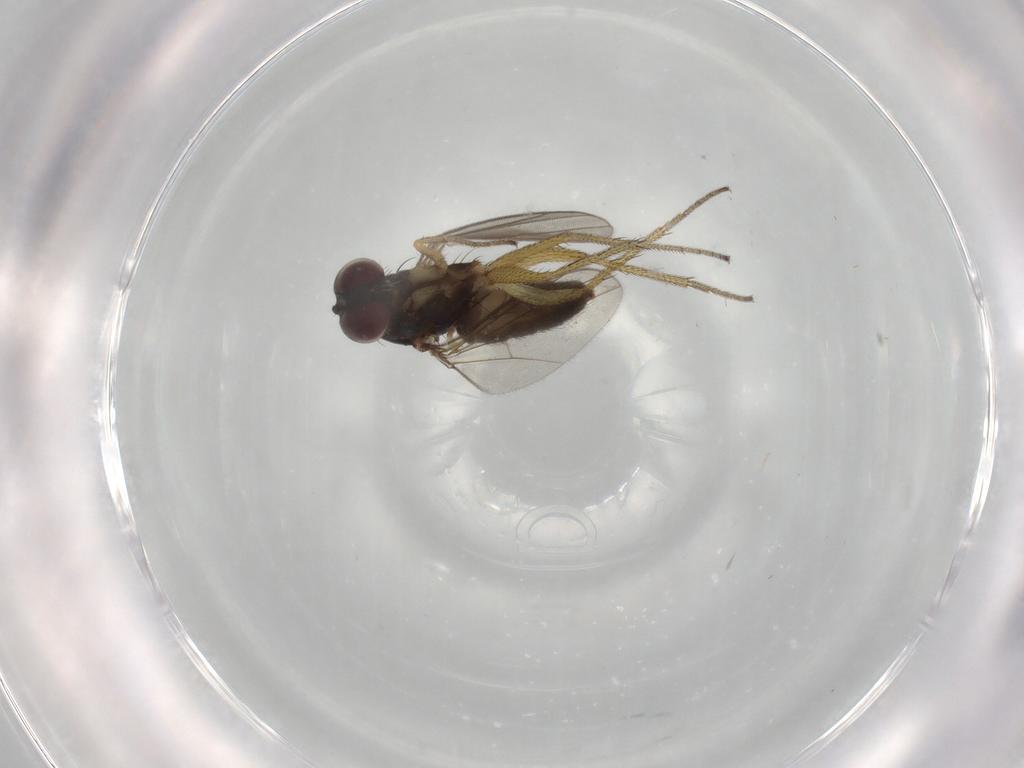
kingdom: Animalia
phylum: Arthropoda
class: Insecta
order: Diptera
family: Dolichopodidae
